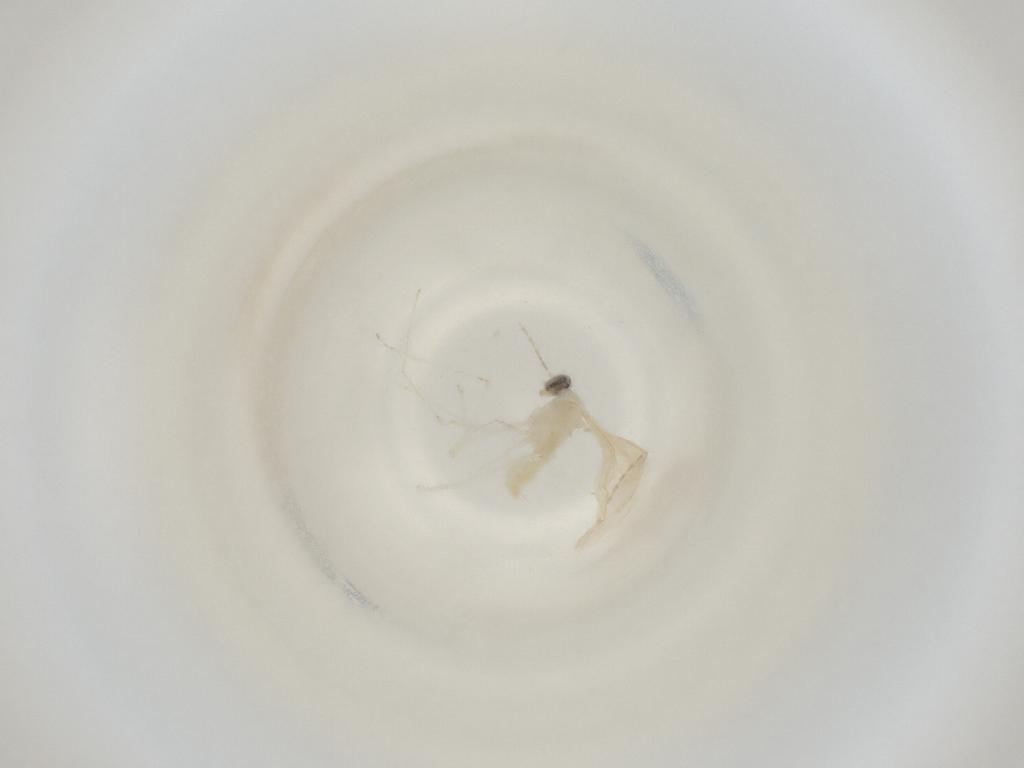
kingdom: Animalia
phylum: Arthropoda
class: Insecta
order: Diptera
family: Cecidomyiidae
